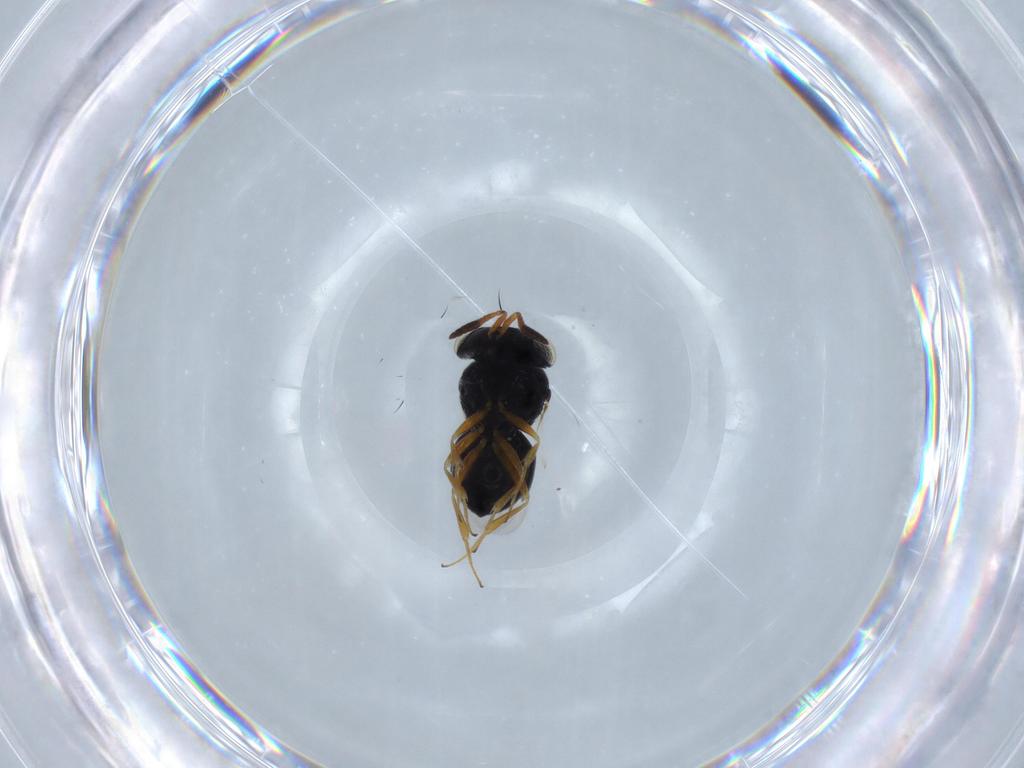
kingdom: Animalia
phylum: Arthropoda
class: Insecta
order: Hymenoptera
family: Scelionidae
